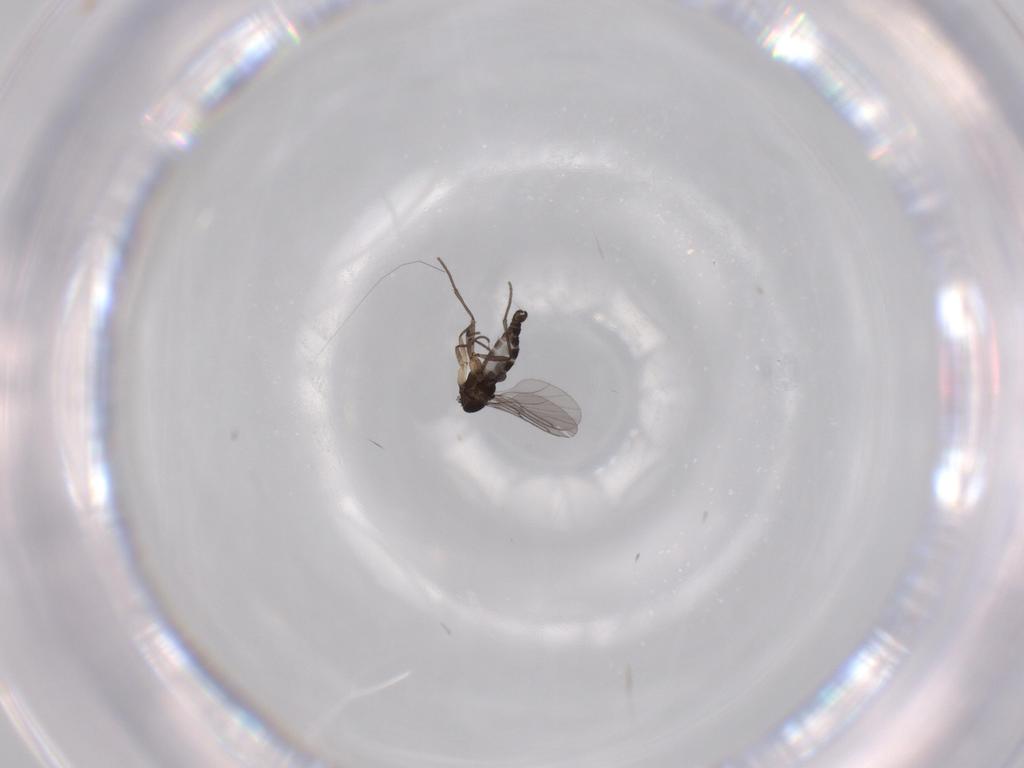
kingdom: Animalia
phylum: Arthropoda
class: Insecta
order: Diptera
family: Sciaridae
